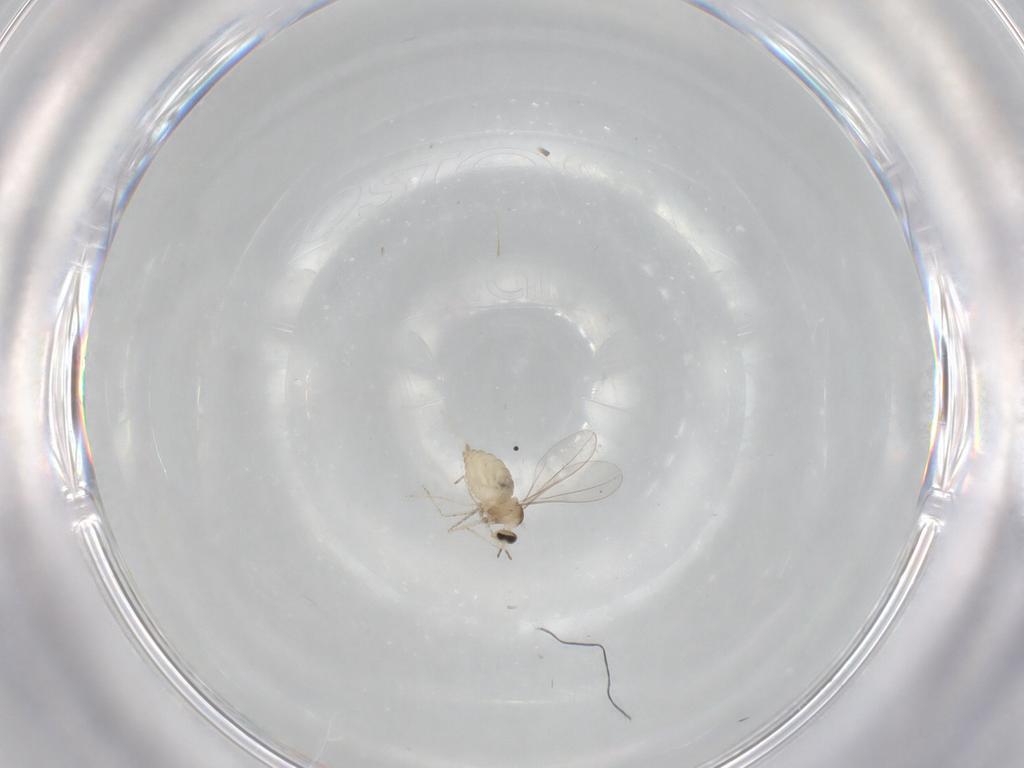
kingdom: Animalia
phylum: Arthropoda
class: Insecta
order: Diptera
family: Cecidomyiidae
